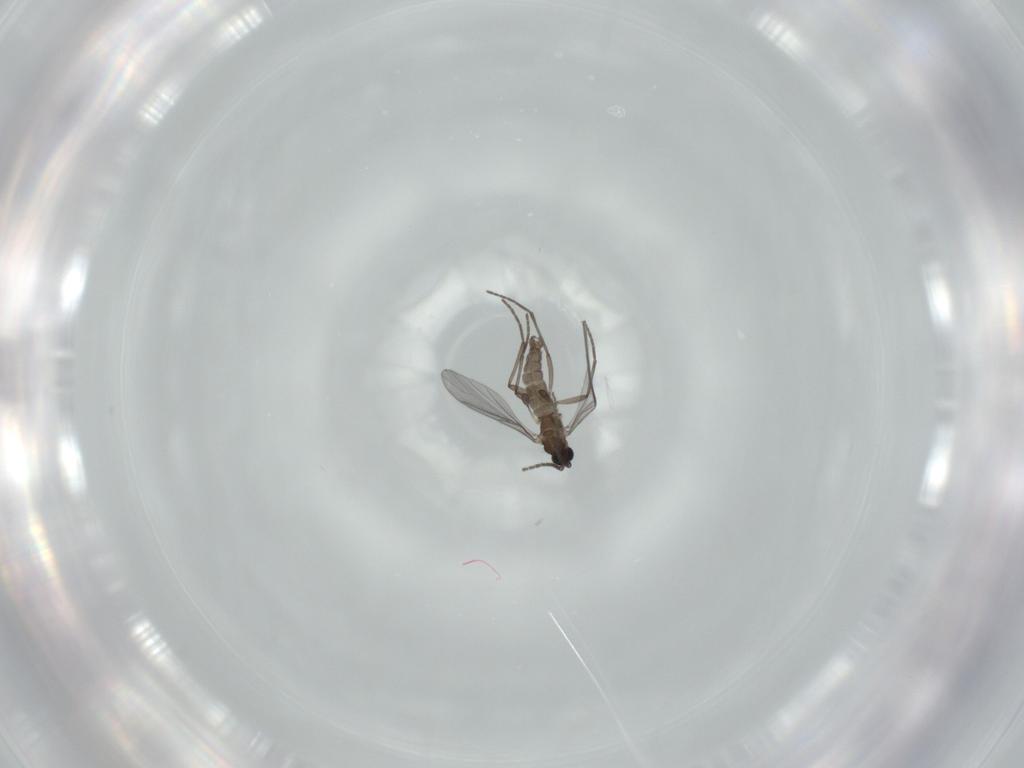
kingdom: Animalia
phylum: Arthropoda
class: Insecta
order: Diptera
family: Sciaridae
